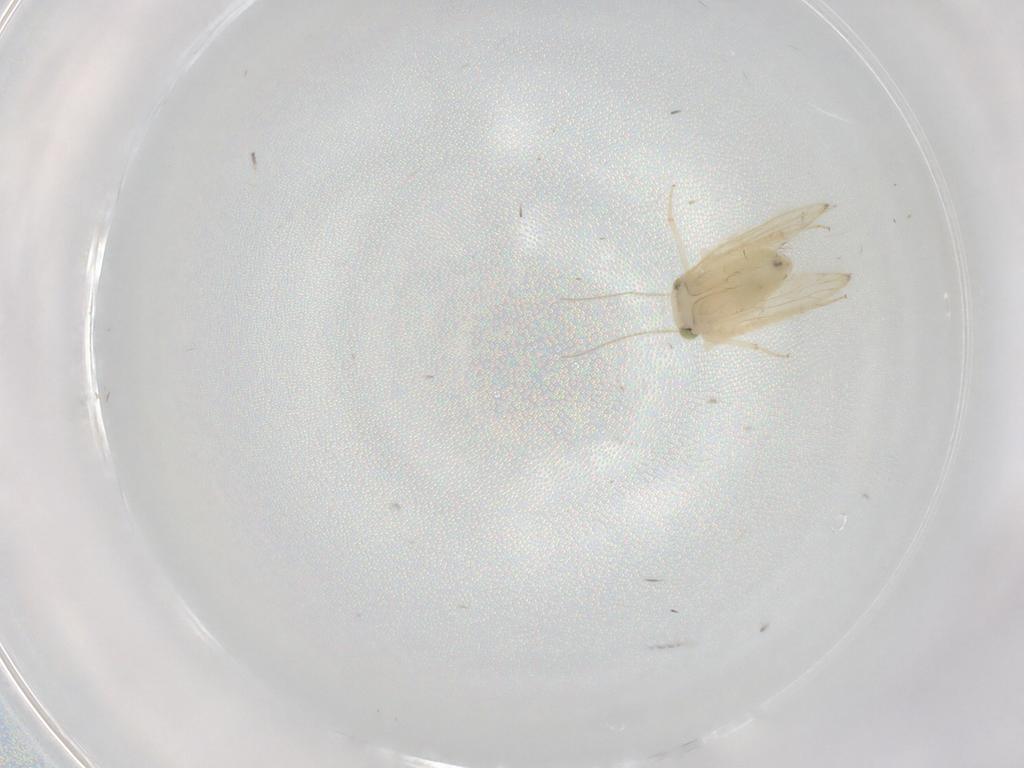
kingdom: Animalia
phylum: Arthropoda
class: Insecta
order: Psocodea
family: Lepidopsocidae
